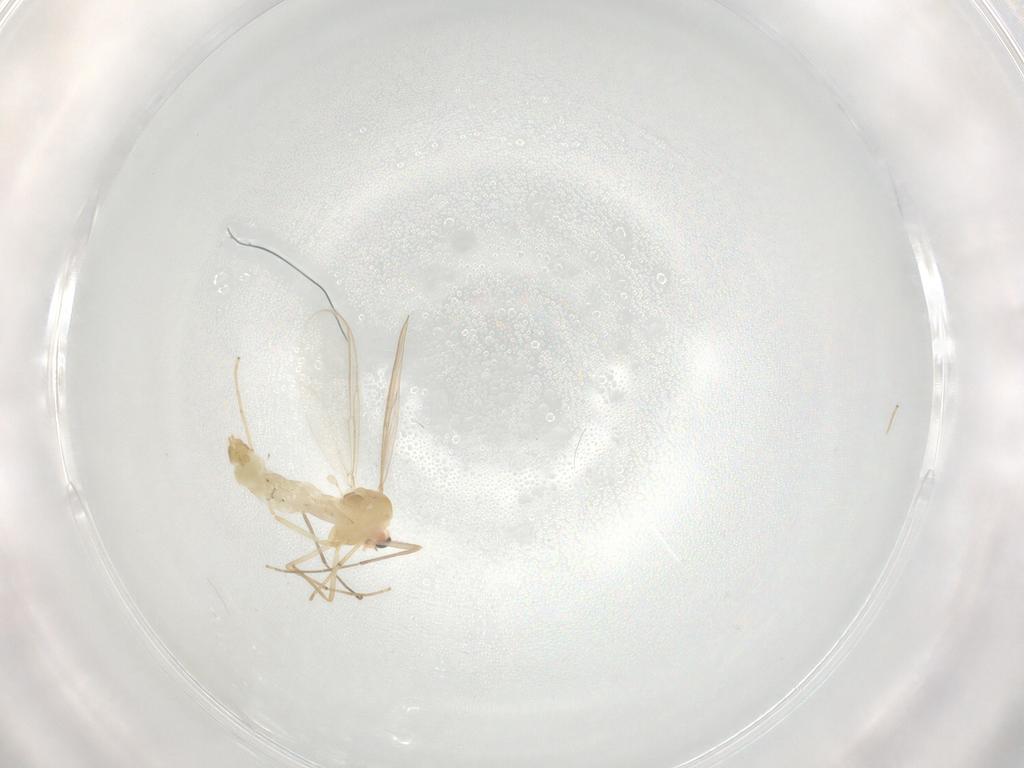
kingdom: Animalia
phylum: Arthropoda
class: Insecta
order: Diptera
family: Chironomidae
